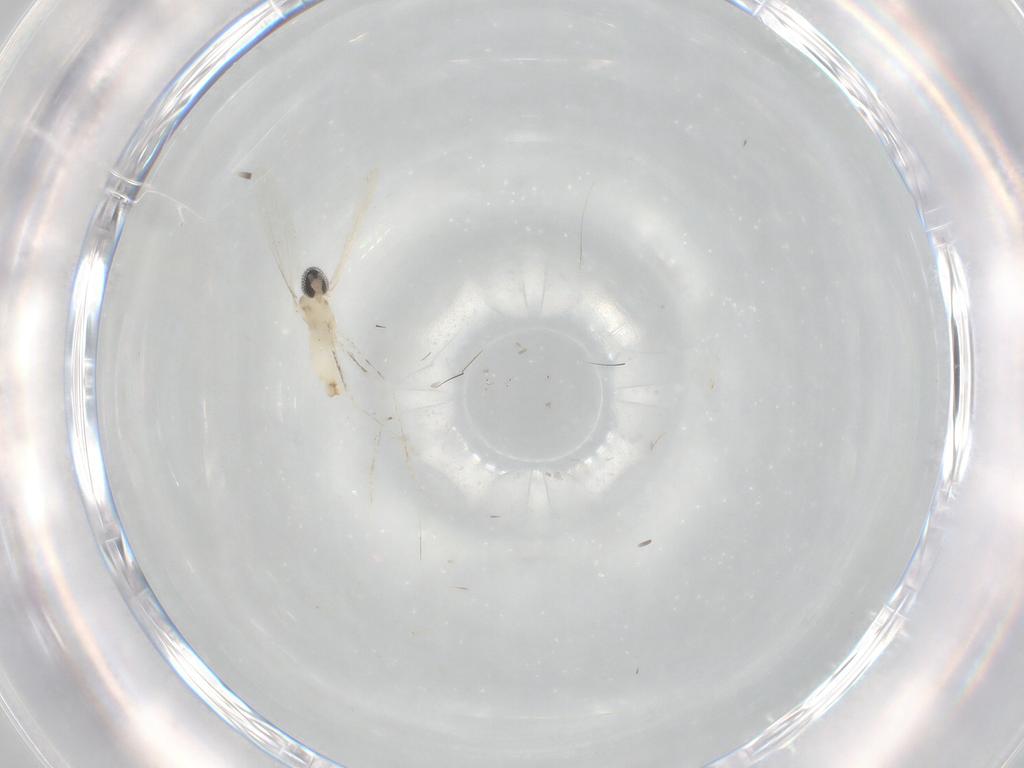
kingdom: Animalia
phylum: Arthropoda
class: Insecta
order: Diptera
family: Cecidomyiidae
